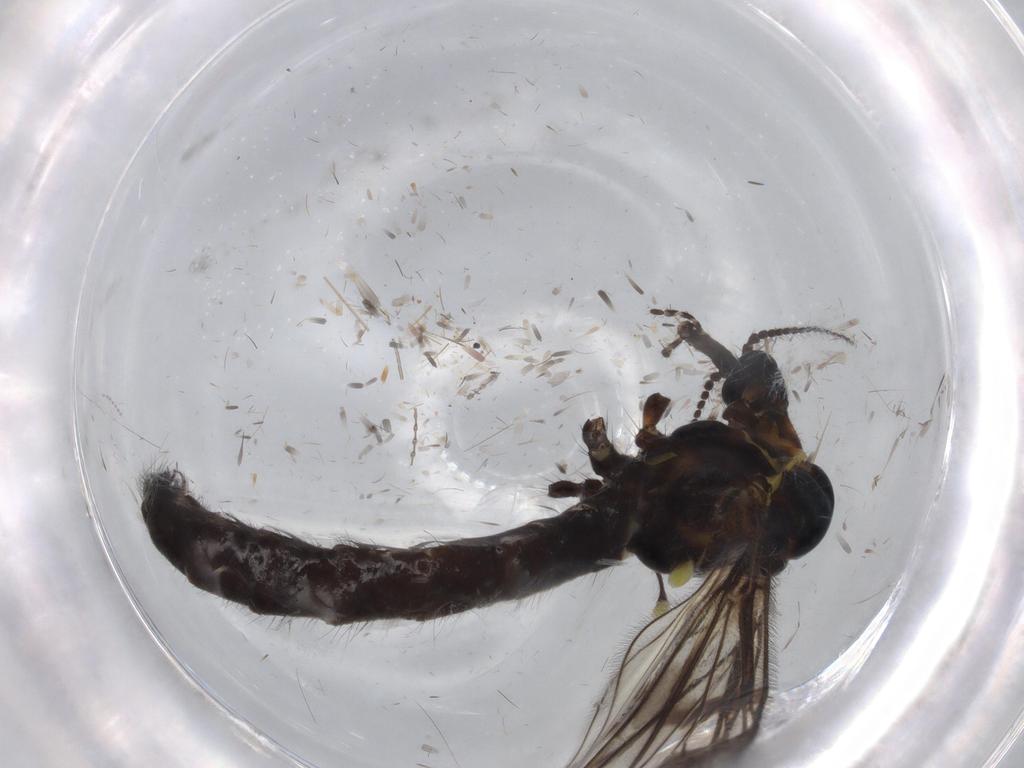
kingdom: Animalia
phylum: Arthropoda
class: Insecta
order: Diptera
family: Limoniidae
